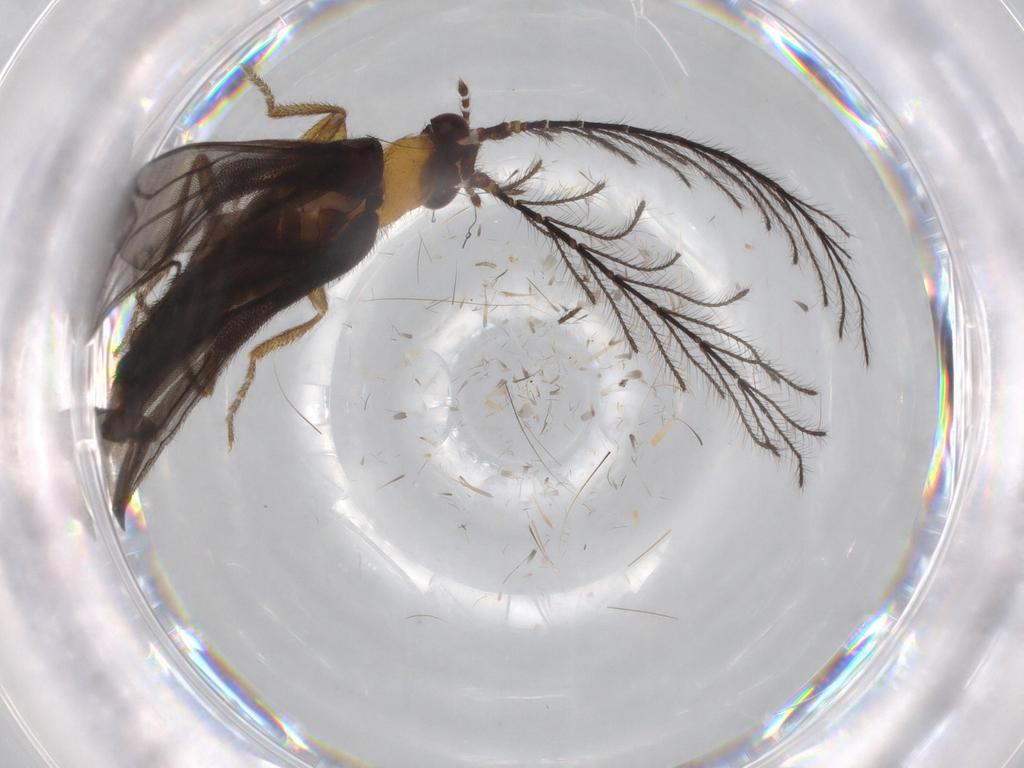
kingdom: Animalia
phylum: Arthropoda
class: Insecta
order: Coleoptera
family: Phengodidae
